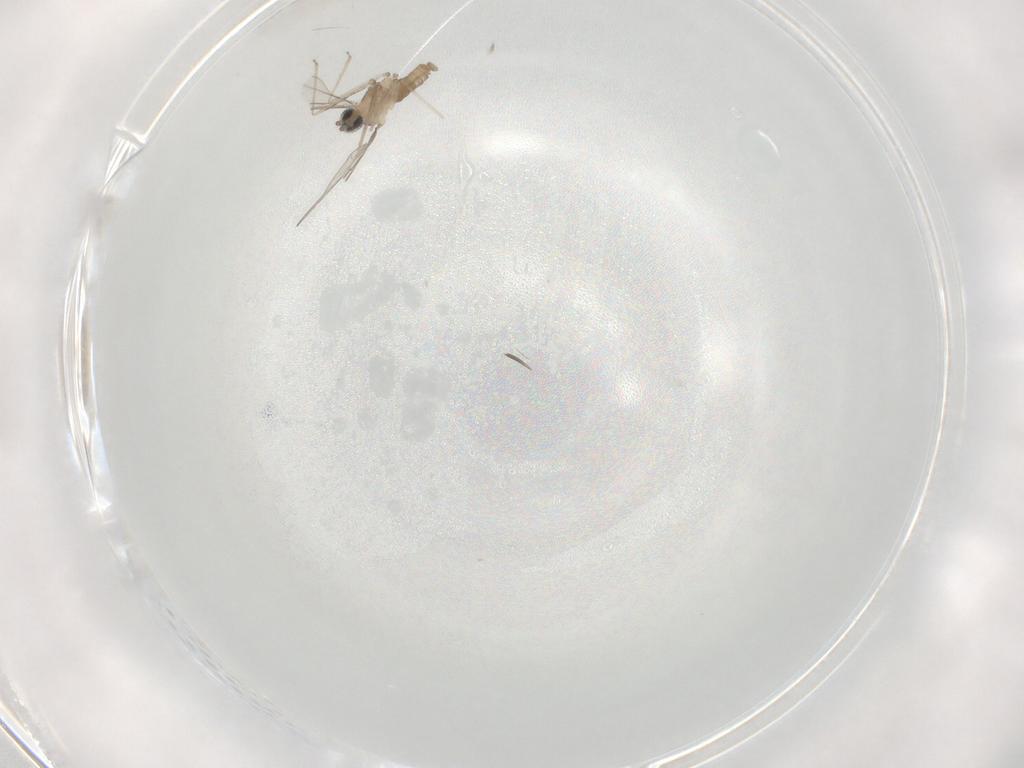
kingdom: Animalia
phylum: Arthropoda
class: Insecta
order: Diptera
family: Cecidomyiidae
